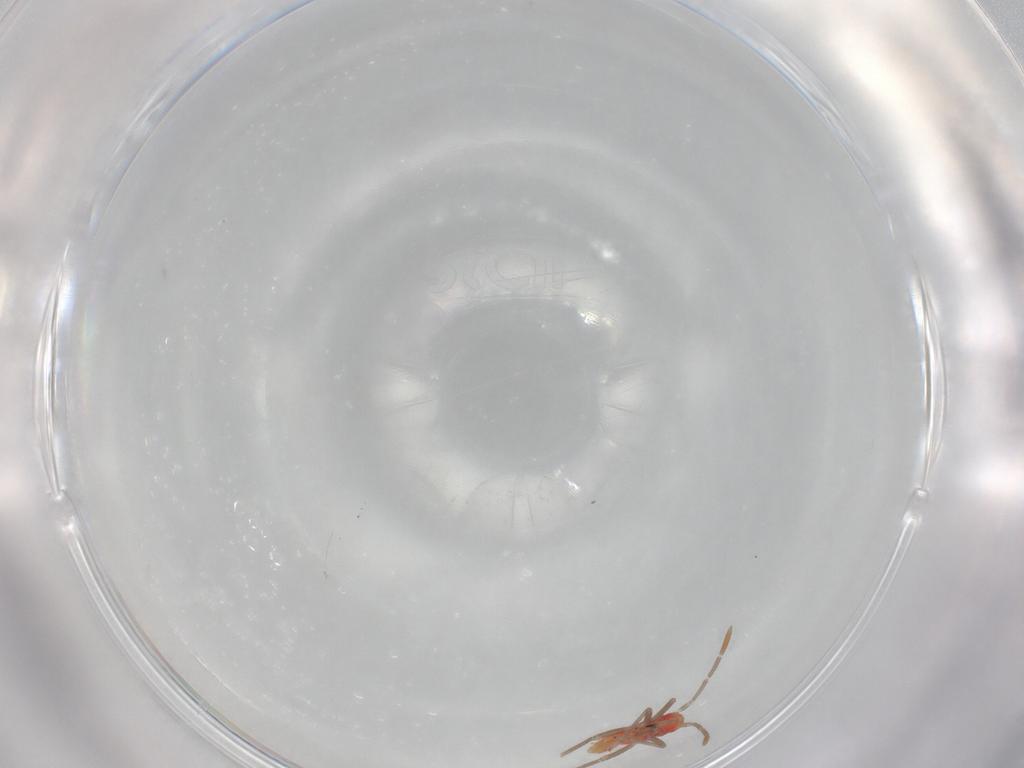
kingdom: Animalia
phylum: Arthropoda
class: Insecta
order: Hemiptera
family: Miridae
